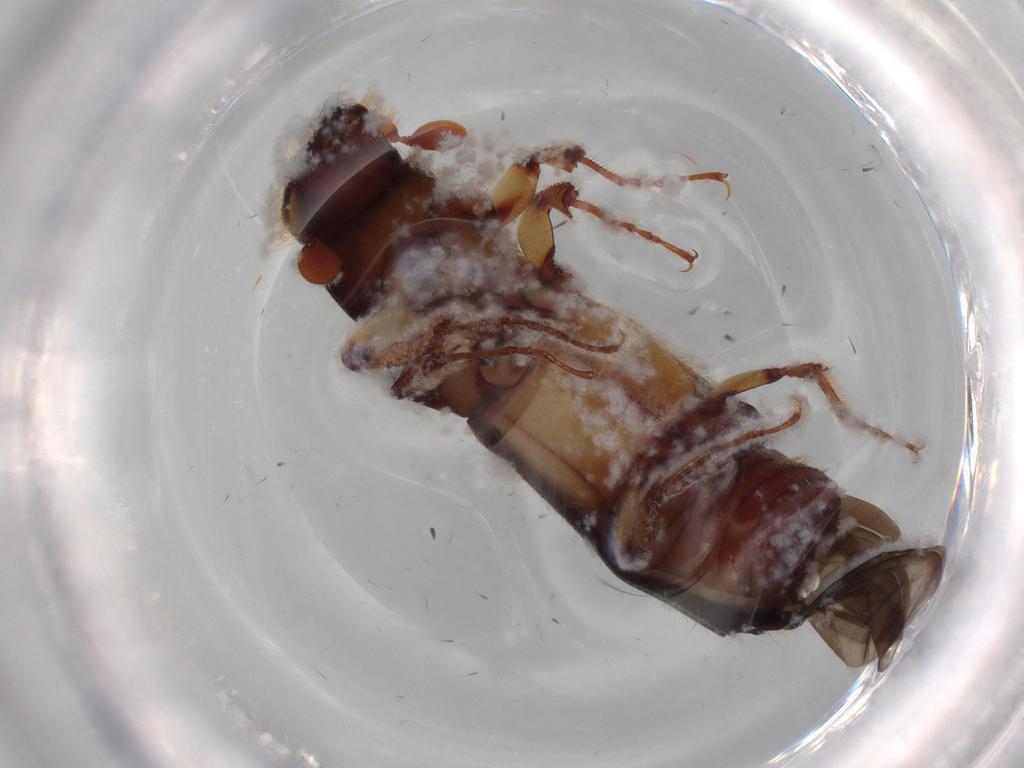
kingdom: Animalia
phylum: Arthropoda
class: Insecta
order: Coleoptera
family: Curculionidae
